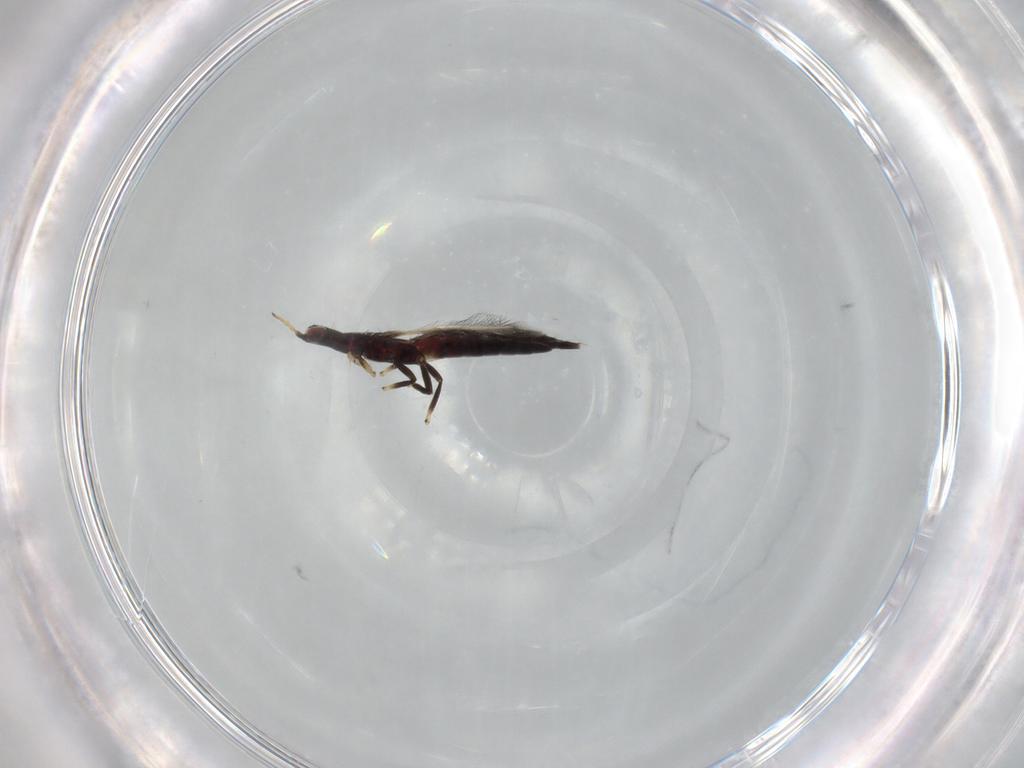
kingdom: Animalia
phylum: Arthropoda
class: Insecta
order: Thysanoptera
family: Phlaeothripidae
